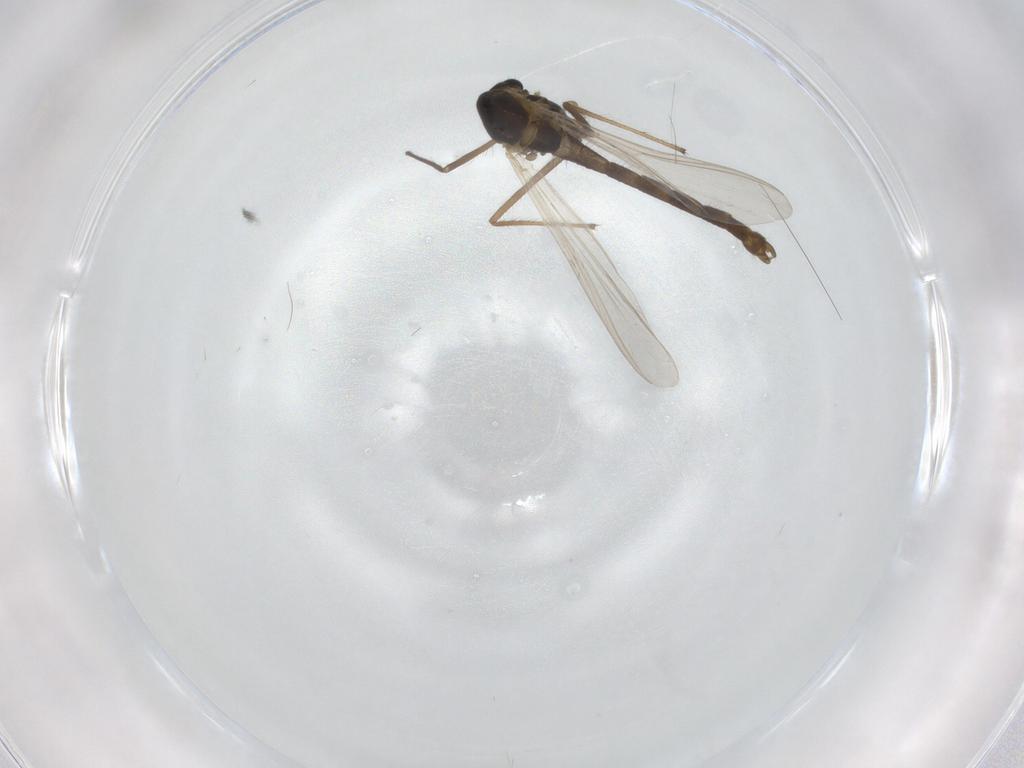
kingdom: Animalia
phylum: Arthropoda
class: Insecta
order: Diptera
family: Chironomidae
